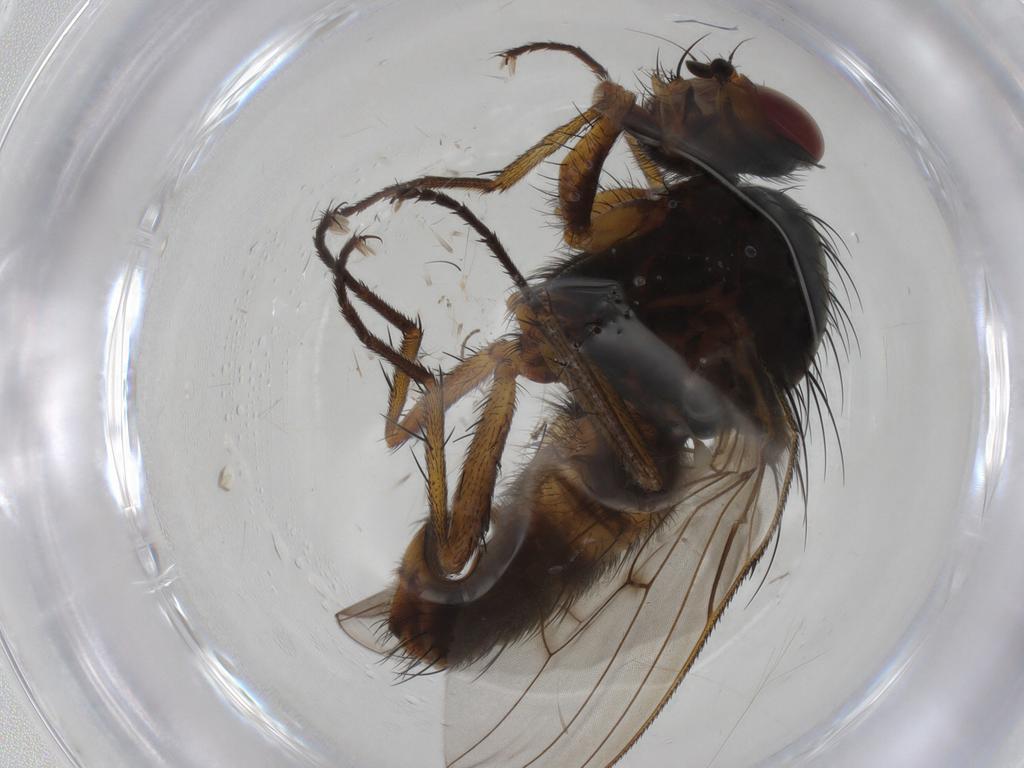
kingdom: Animalia
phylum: Arthropoda
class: Insecta
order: Diptera
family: Anthomyiidae
